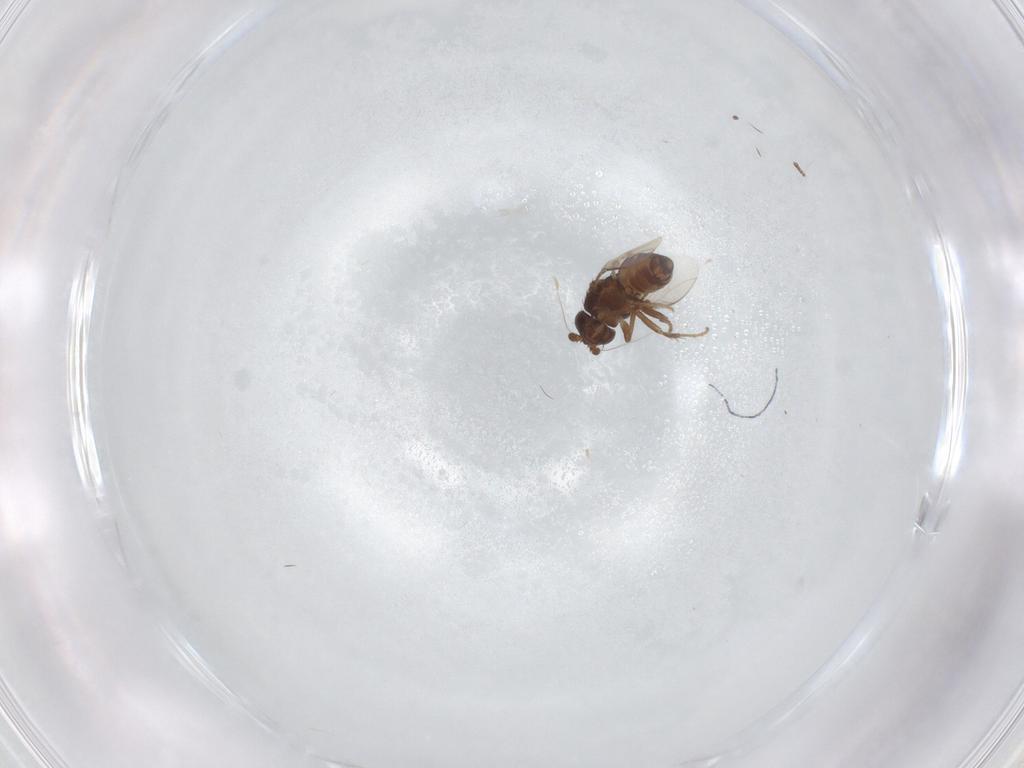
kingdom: Animalia
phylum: Arthropoda
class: Insecta
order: Diptera
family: Sphaeroceridae
